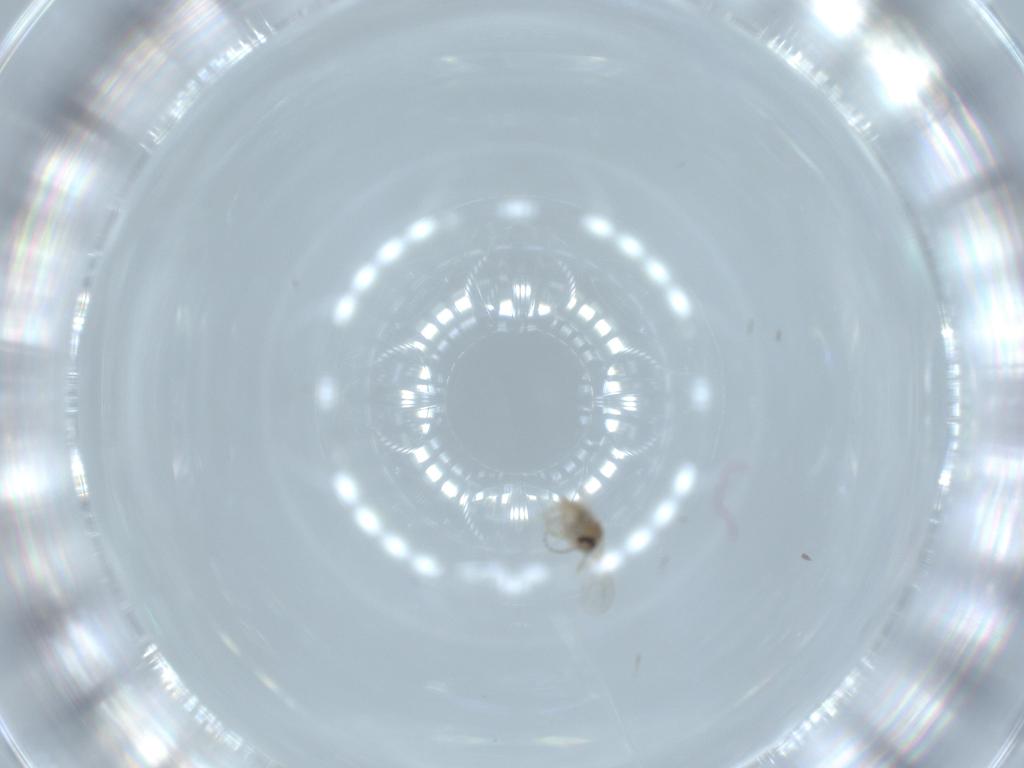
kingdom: Animalia
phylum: Arthropoda
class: Insecta
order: Diptera
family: Cecidomyiidae
